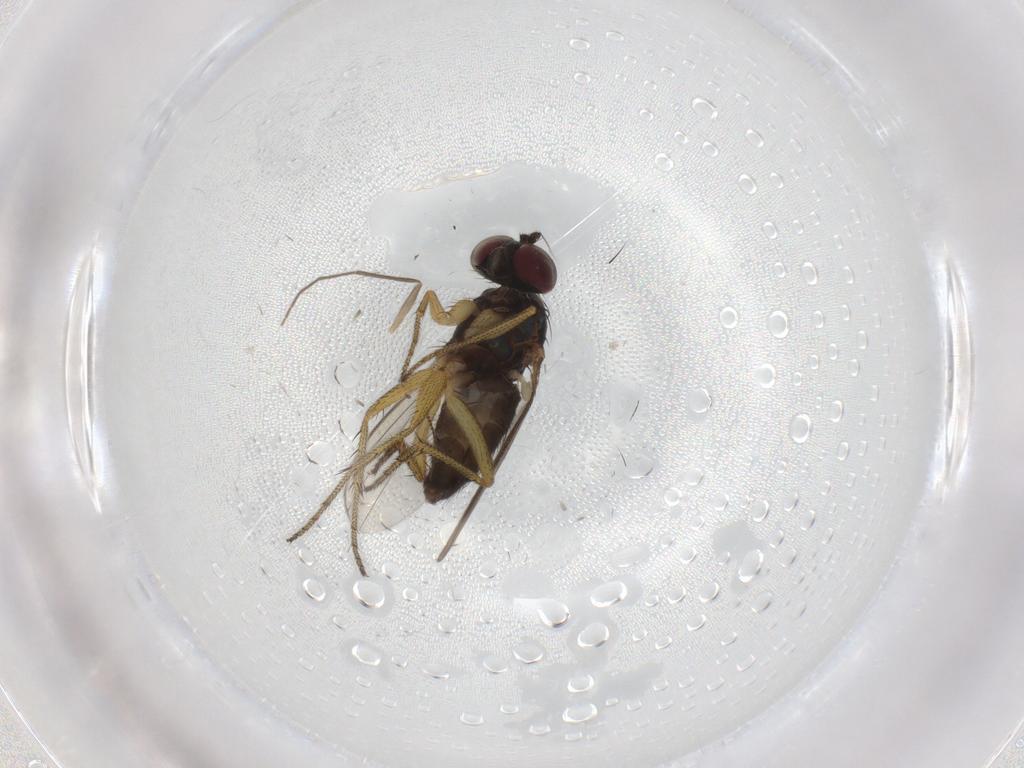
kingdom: Animalia
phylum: Arthropoda
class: Insecta
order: Diptera
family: Dolichopodidae
